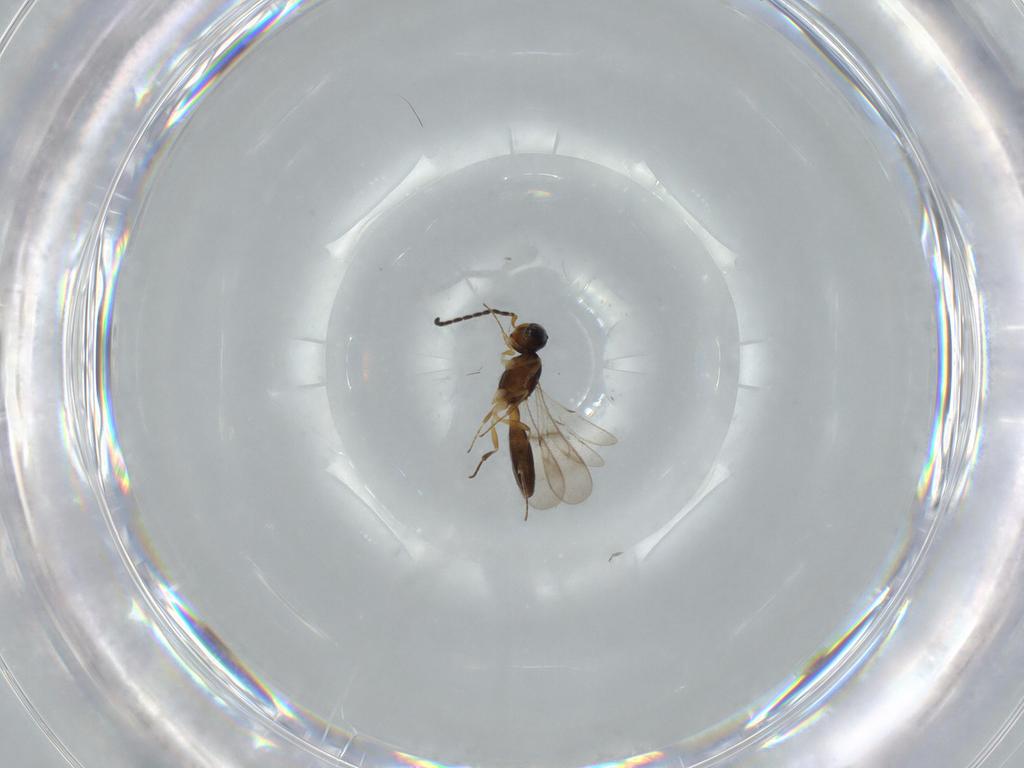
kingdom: Animalia
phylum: Arthropoda
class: Insecta
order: Hymenoptera
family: Scelionidae
